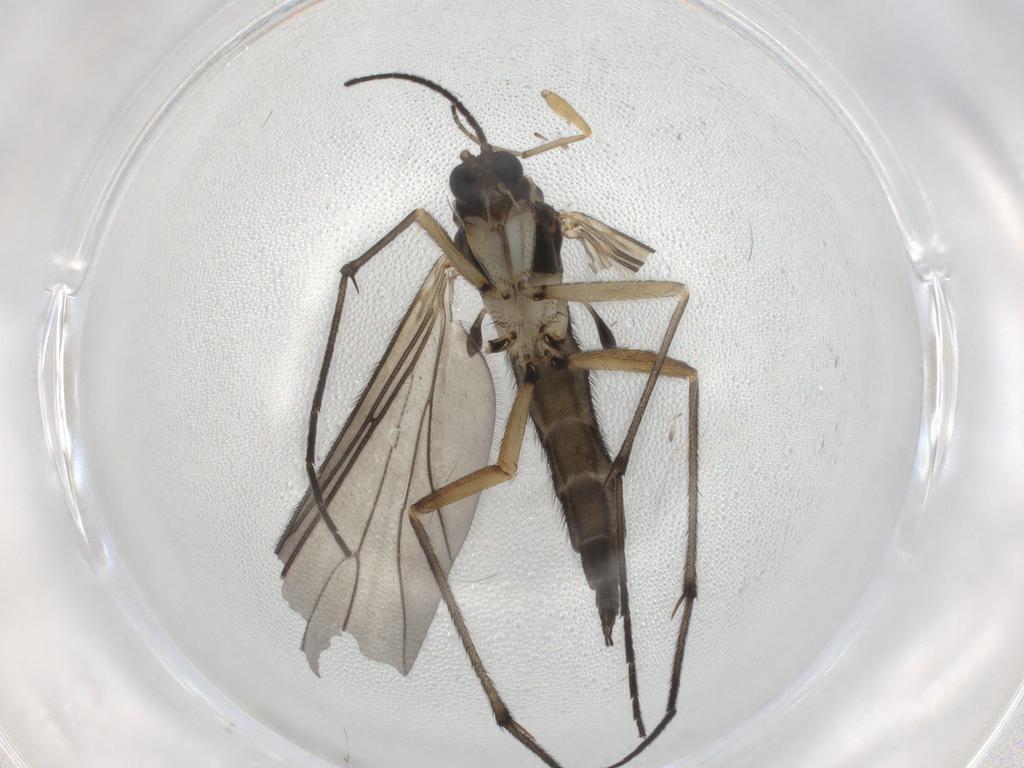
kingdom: Animalia
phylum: Arthropoda
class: Insecta
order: Diptera
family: Sciaridae
